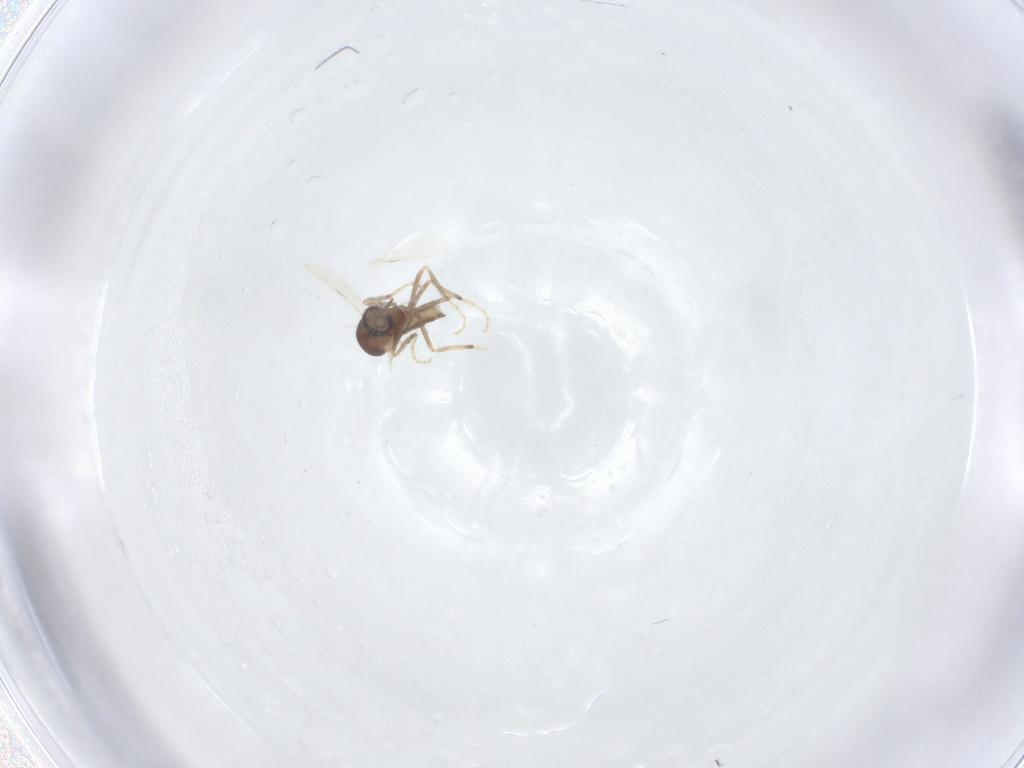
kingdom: Animalia
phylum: Arthropoda
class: Insecta
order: Diptera
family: Ceratopogonidae
